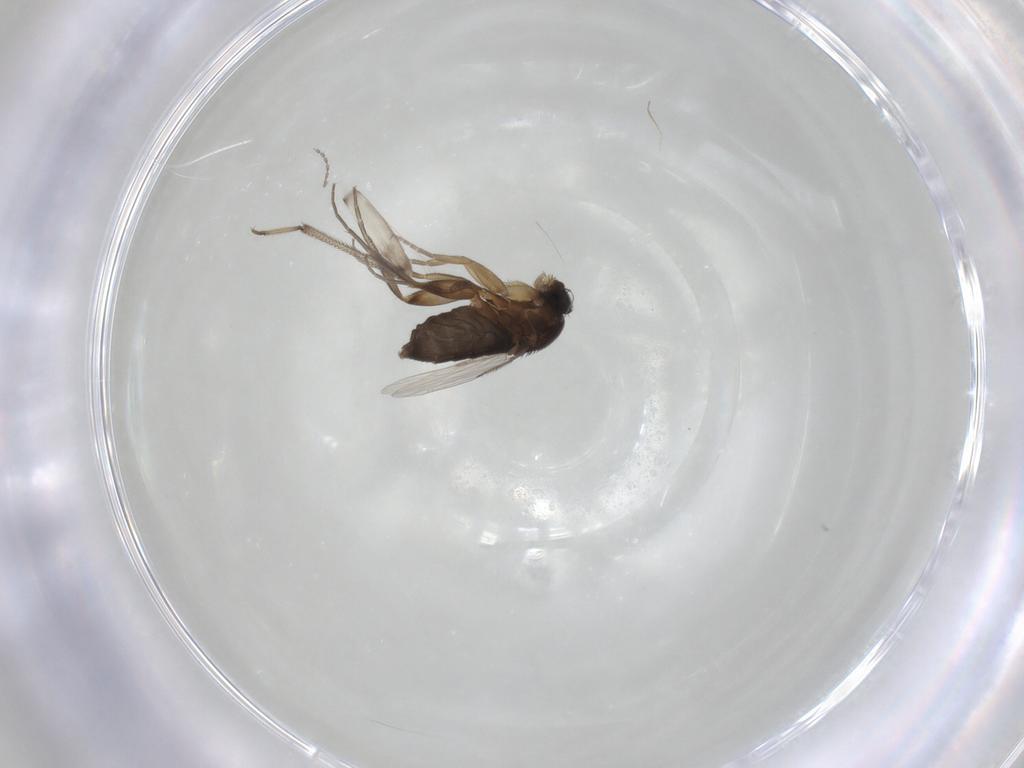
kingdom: Animalia
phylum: Arthropoda
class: Insecta
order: Diptera
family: Phoridae
